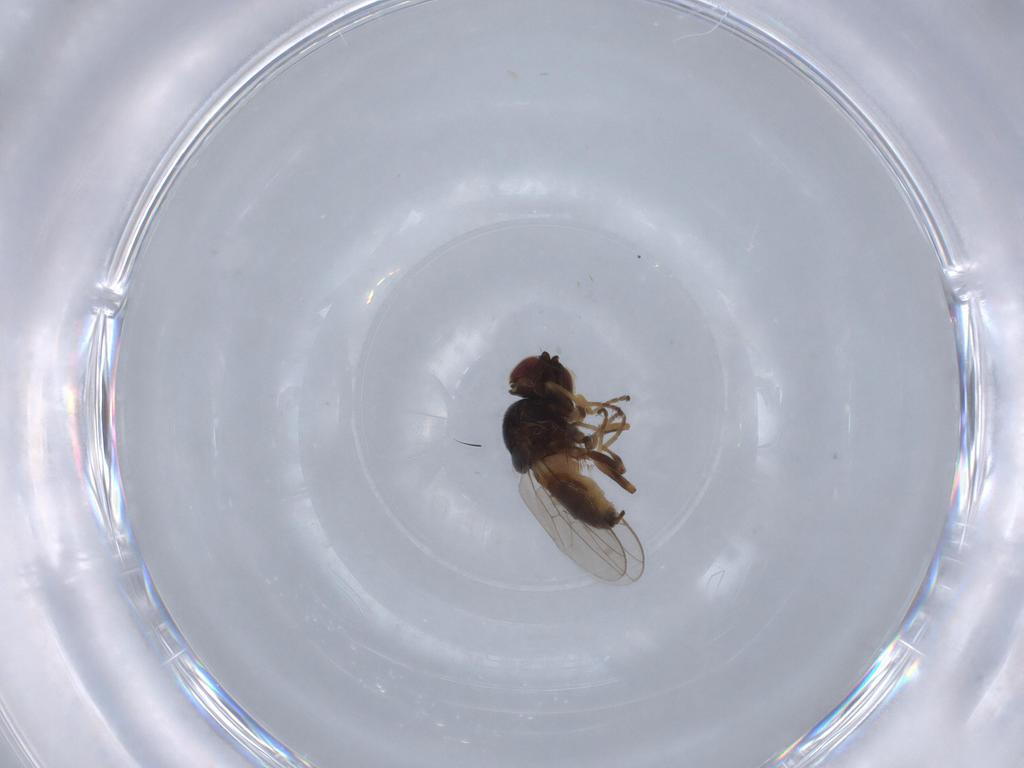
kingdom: Animalia
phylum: Arthropoda
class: Insecta
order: Diptera
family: Chloropidae
